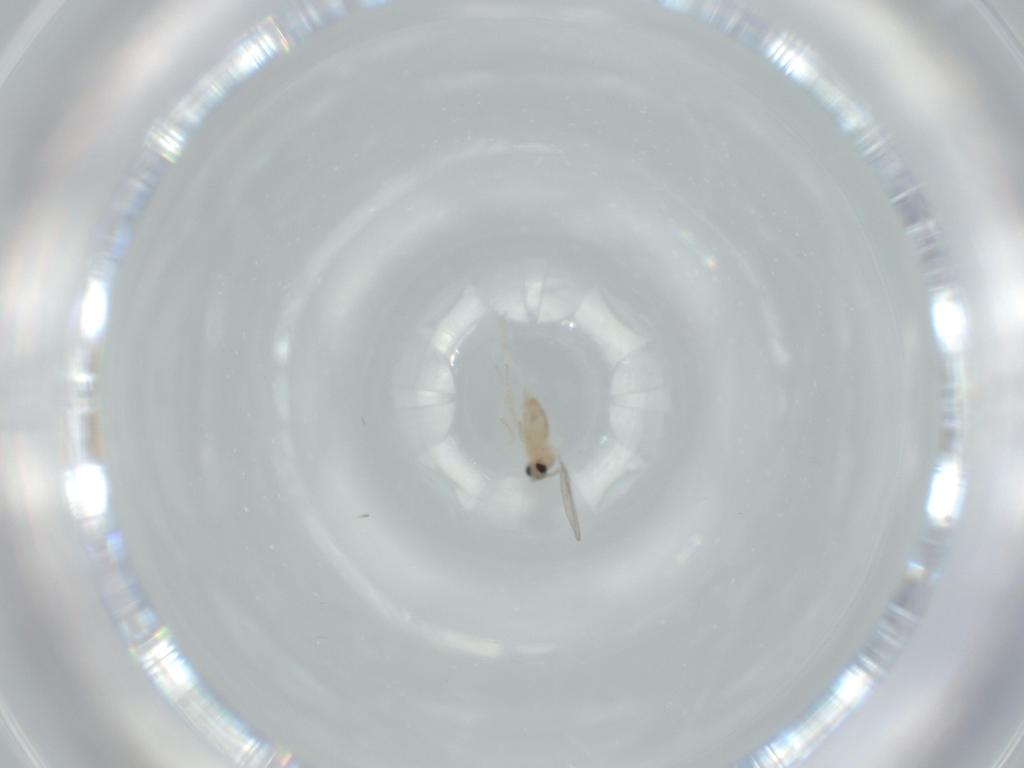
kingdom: Animalia
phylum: Arthropoda
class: Insecta
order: Diptera
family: Cecidomyiidae
